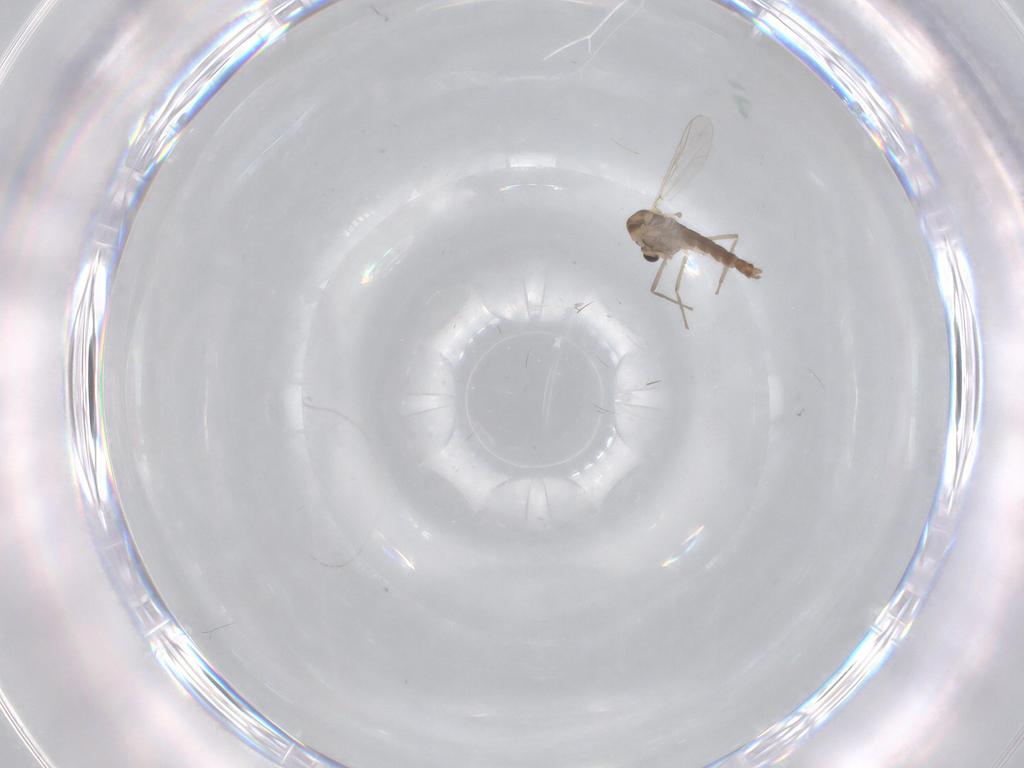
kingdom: Animalia
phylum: Arthropoda
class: Insecta
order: Diptera
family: Chironomidae
